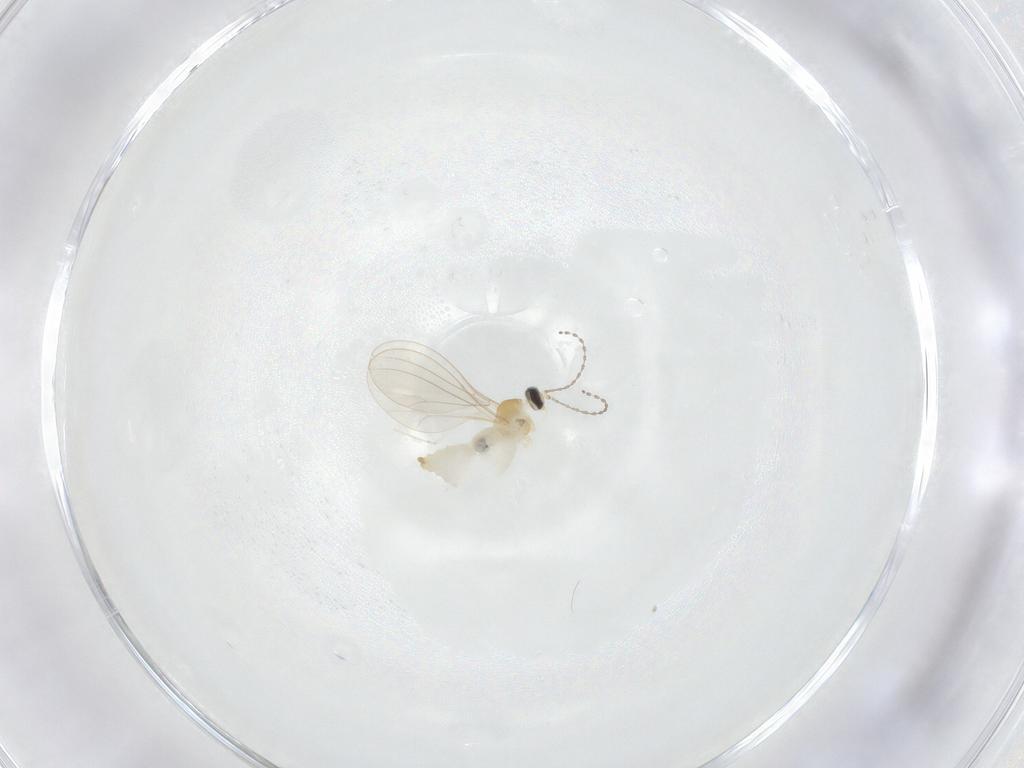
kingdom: Animalia
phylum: Arthropoda
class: Insecta
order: Diptera
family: Cecidomyiidae
